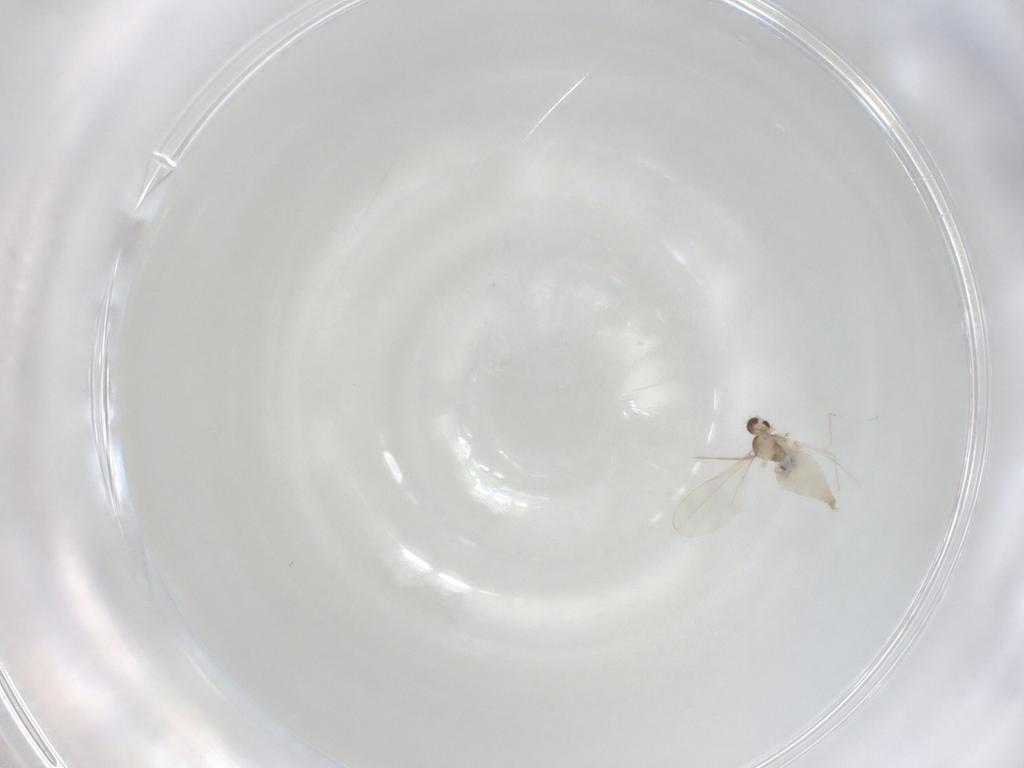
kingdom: Animalia
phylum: Arthropoda
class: Insecta
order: Diptera
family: Cecidomyiidae
